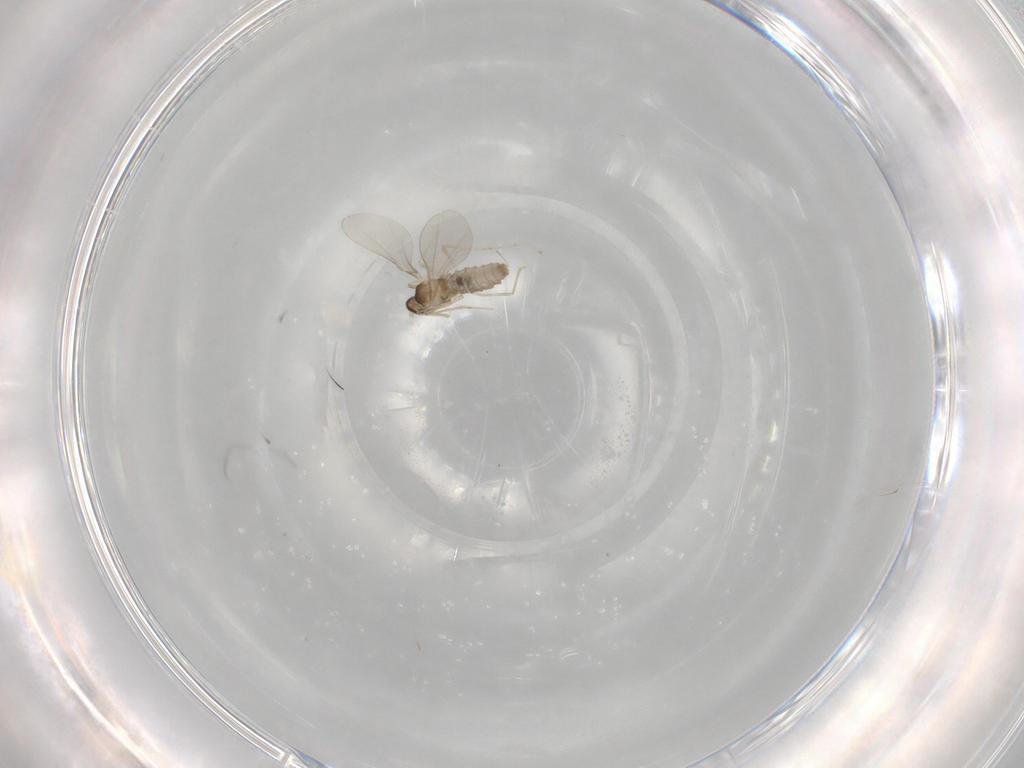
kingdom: Animalia
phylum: Arthropoda
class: Insecta
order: Diptera
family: Cecidomyiidae
